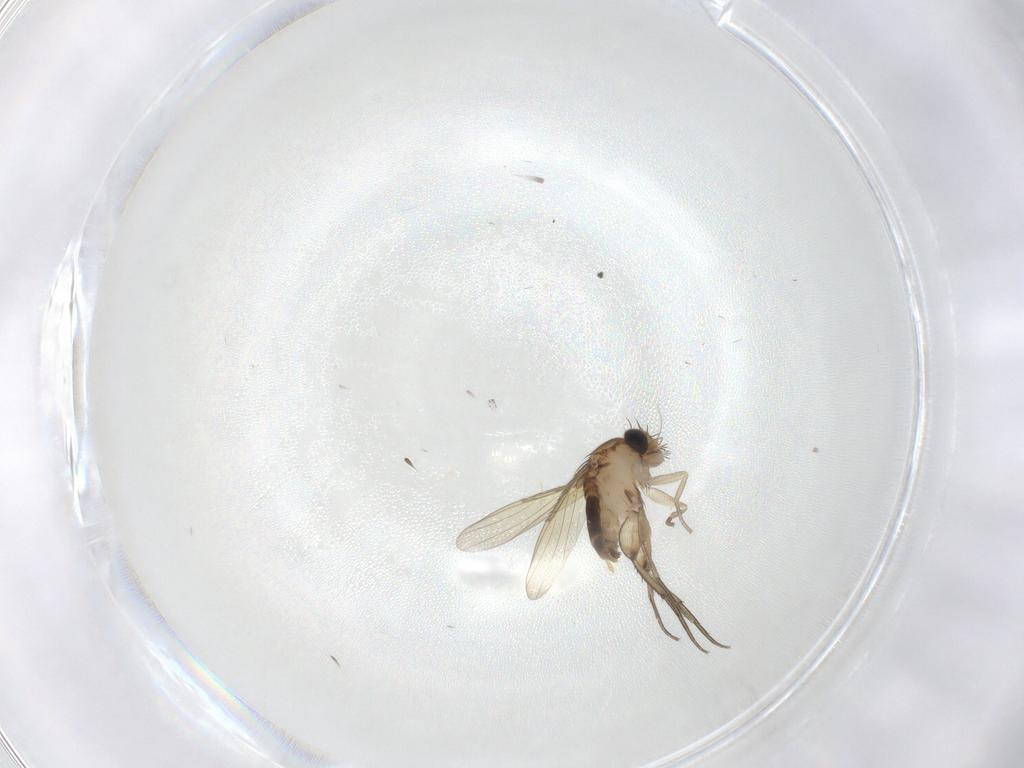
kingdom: Animalia
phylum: Arthropoda
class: Insecta
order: Diptera
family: Phoridae
